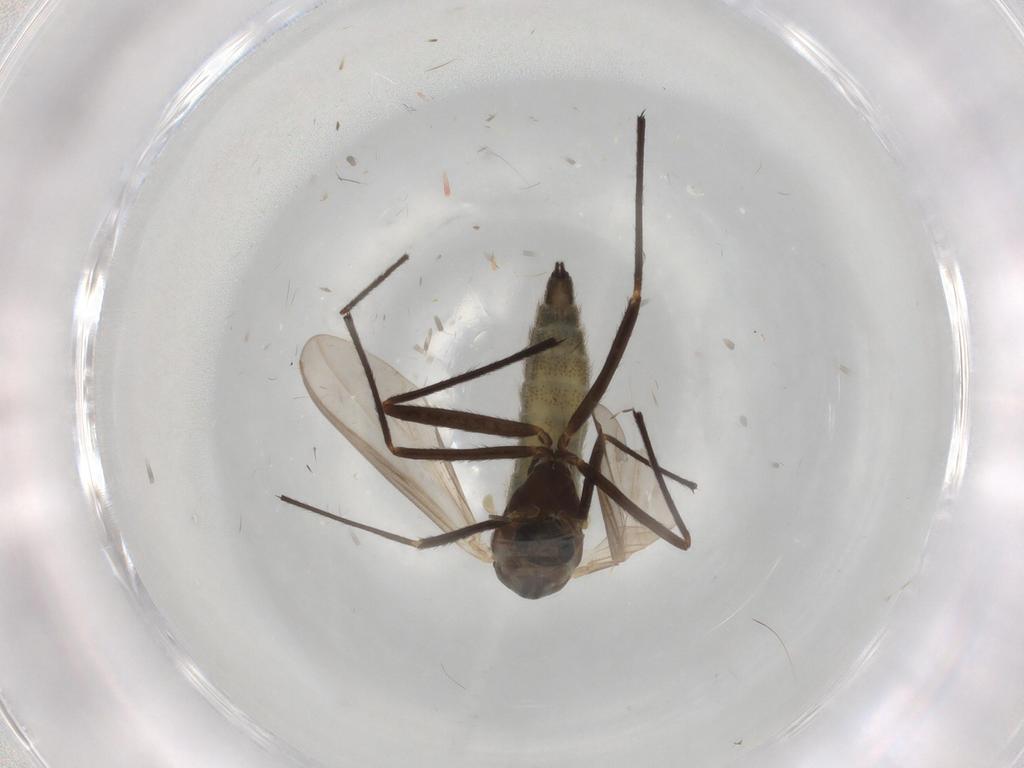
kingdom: Animalia
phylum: Arthropoda
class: Insecta
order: Diptera
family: Chironomidae
